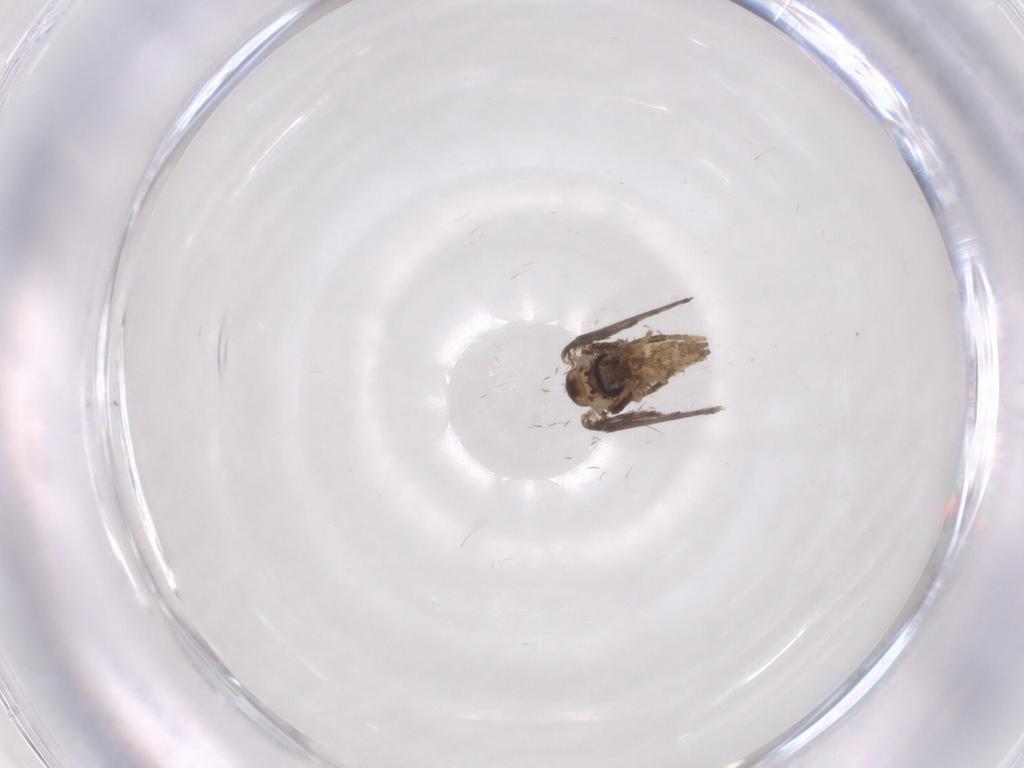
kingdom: Animalia
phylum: Arthropoda
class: Insecta
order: Diptera
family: Psychodidae
